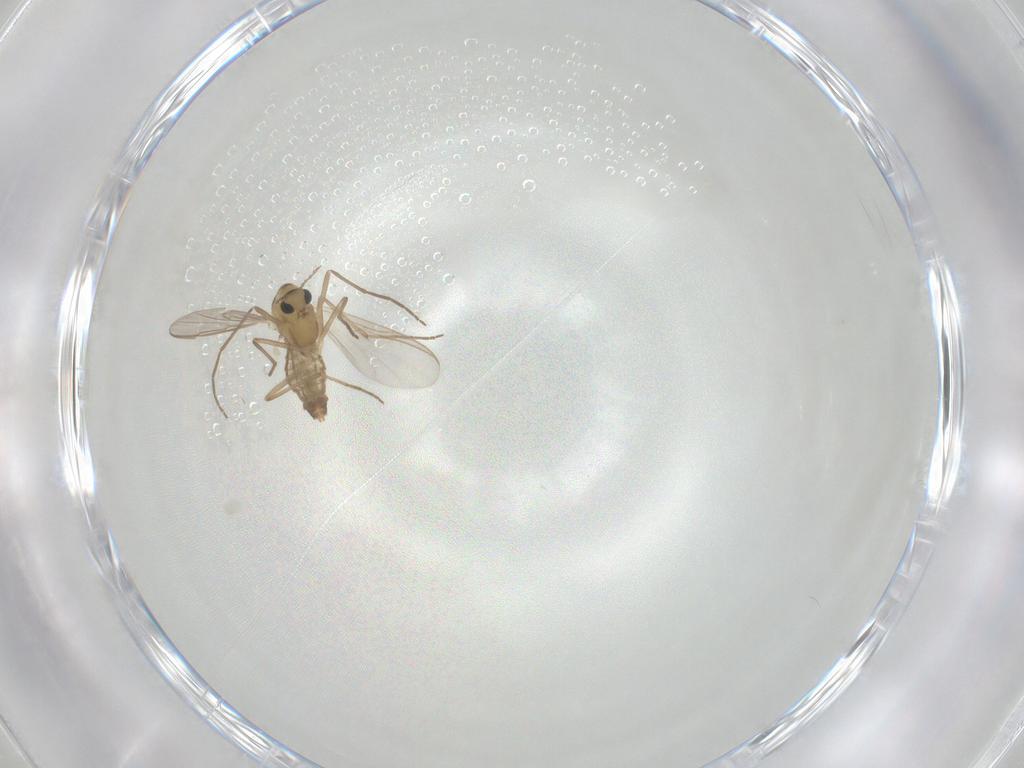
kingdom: Animalia
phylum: Arthropoda
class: Insecta
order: Diptera
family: Chironomidae
